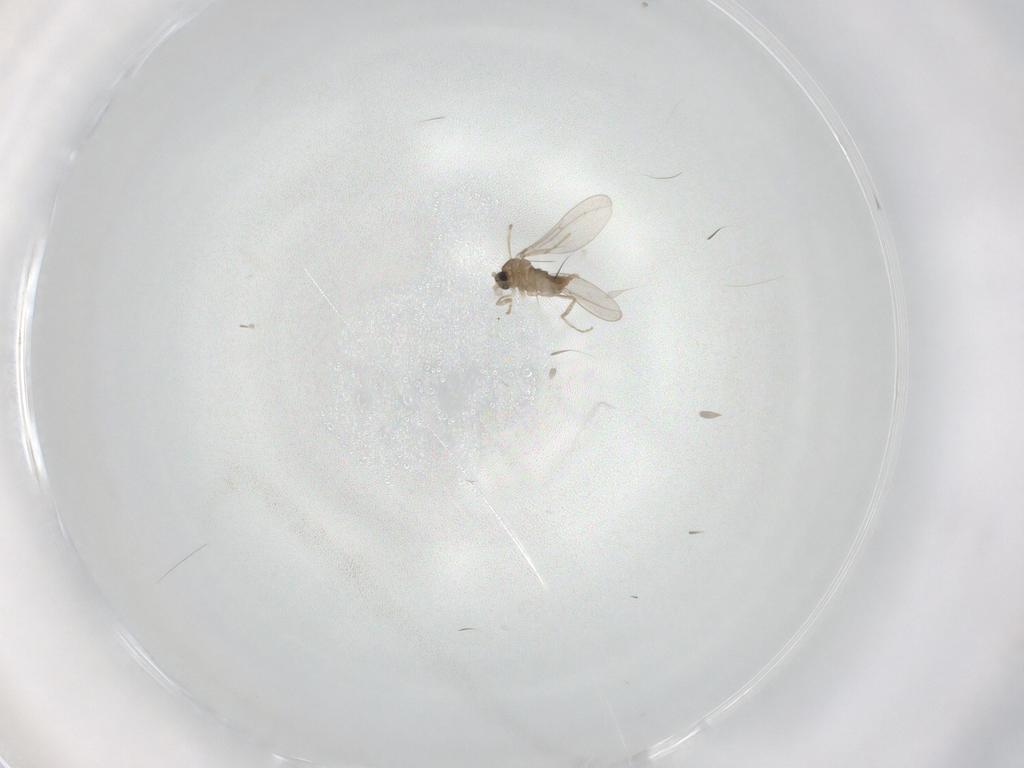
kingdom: Animalia
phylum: Arthropoda
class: Insecta
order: Diptera
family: Chironomidae
